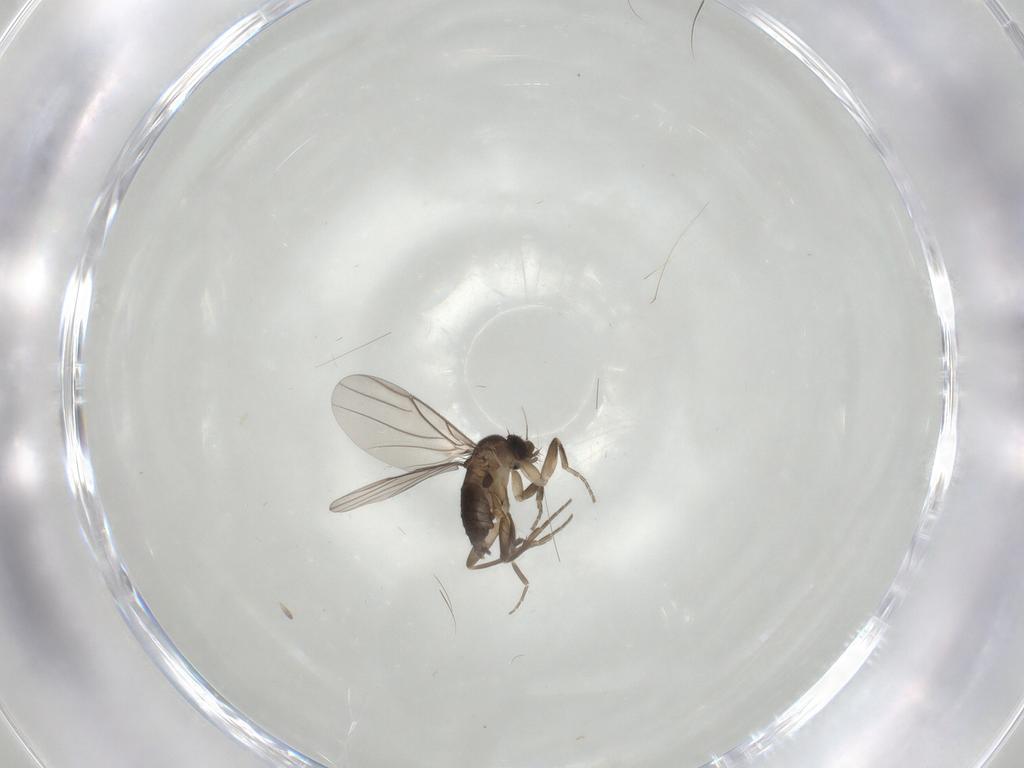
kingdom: Animalia
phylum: Arthropoda
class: Insecta
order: Diptera
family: Phoridae
